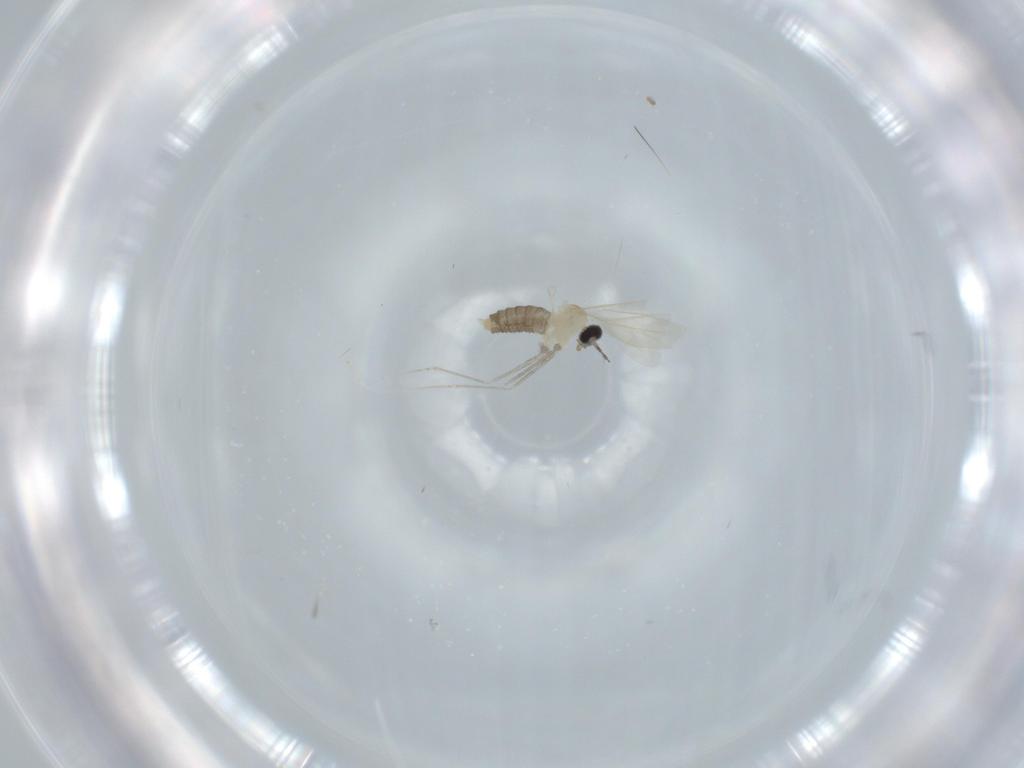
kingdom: Animalia
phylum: Arthropoda
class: Insecta
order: Diptera
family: Cecidomyiidae
